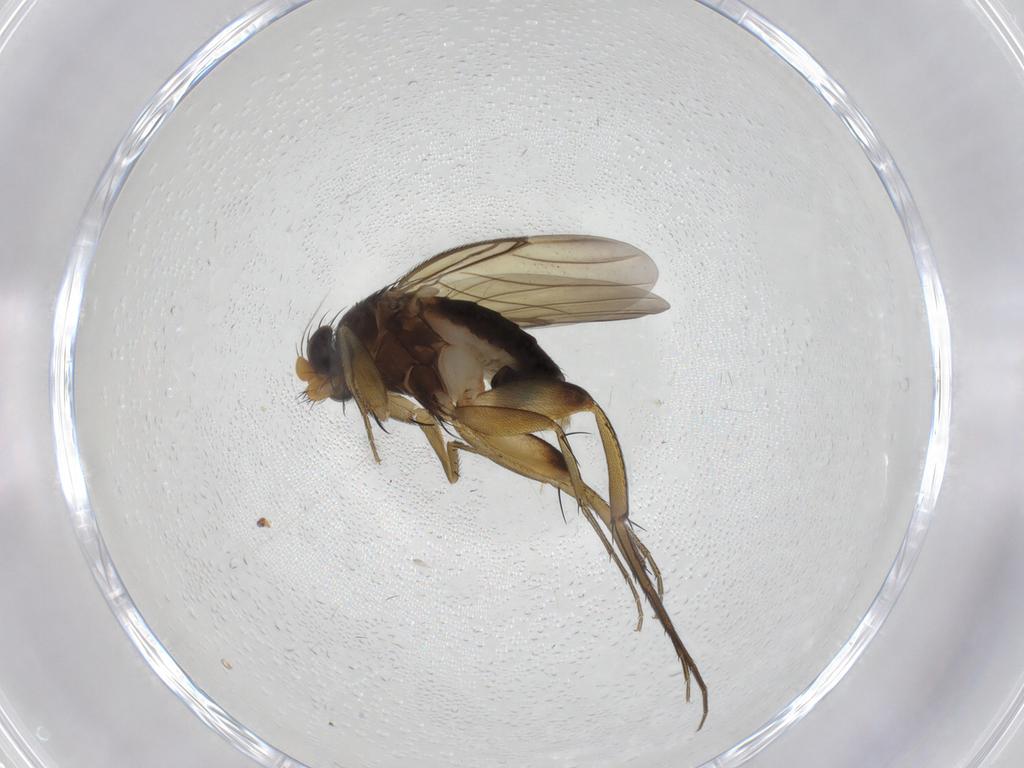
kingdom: Animalia
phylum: Arthropoda
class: Insecta
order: Diptera
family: Phoridae
